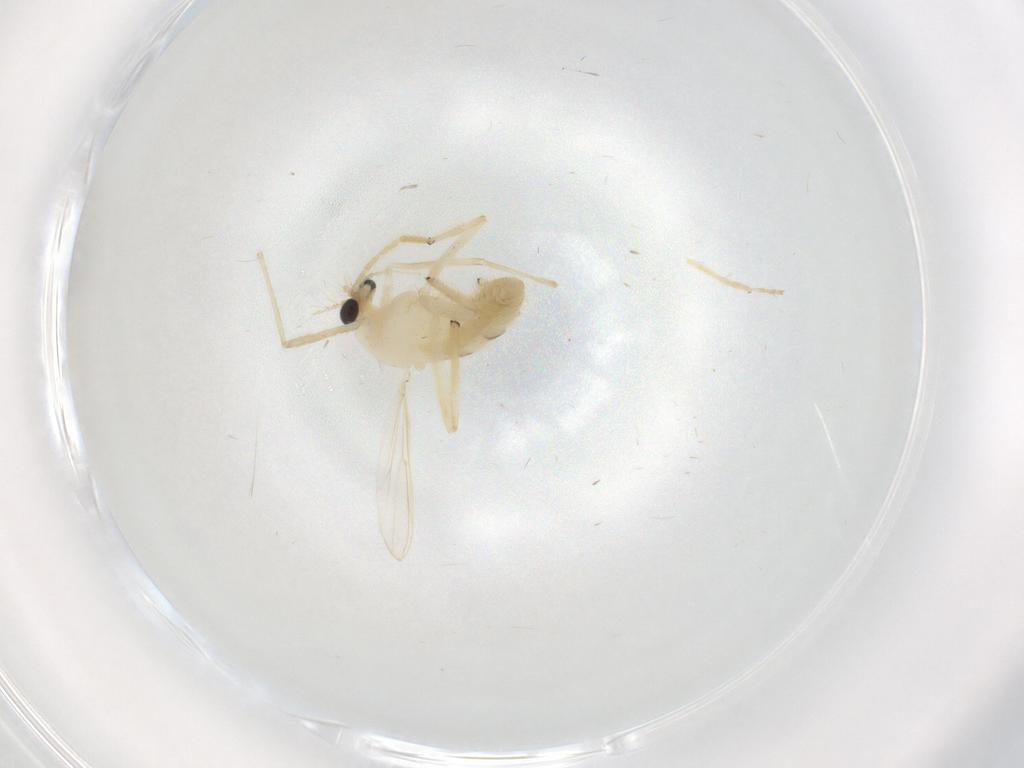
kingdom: Animalia
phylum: Arthropoda
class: Insecta
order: Diptera
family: Chironomidae
